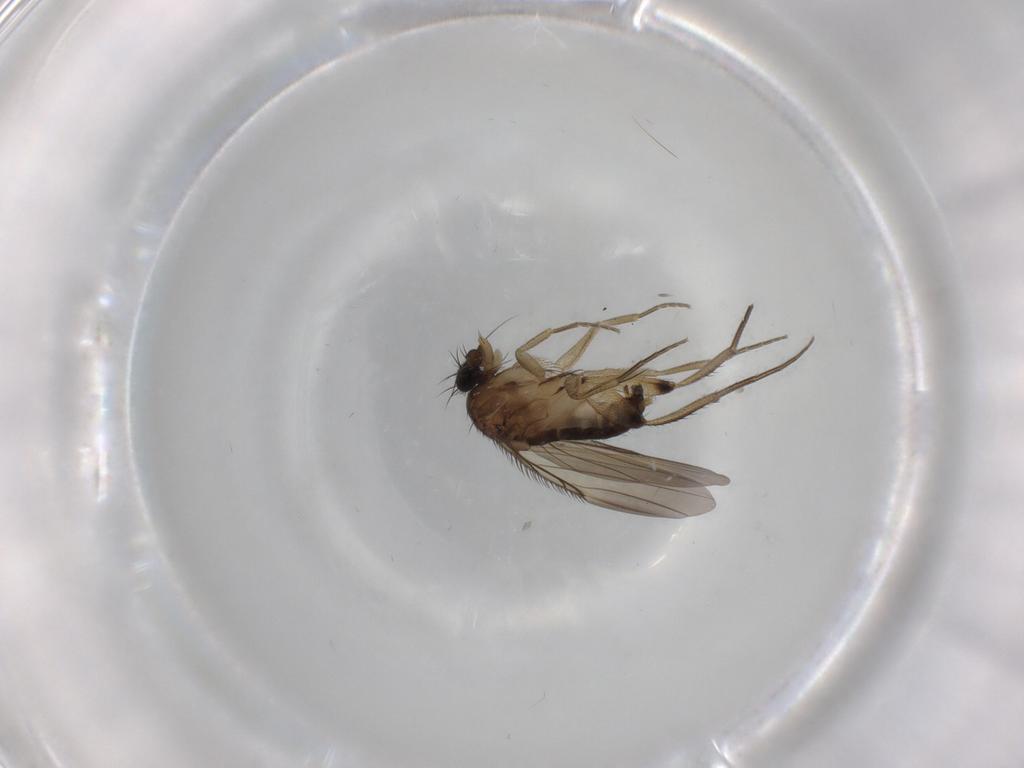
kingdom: Animalia
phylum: Arthropoda
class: Insecta
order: Diptera
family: Phoridae
